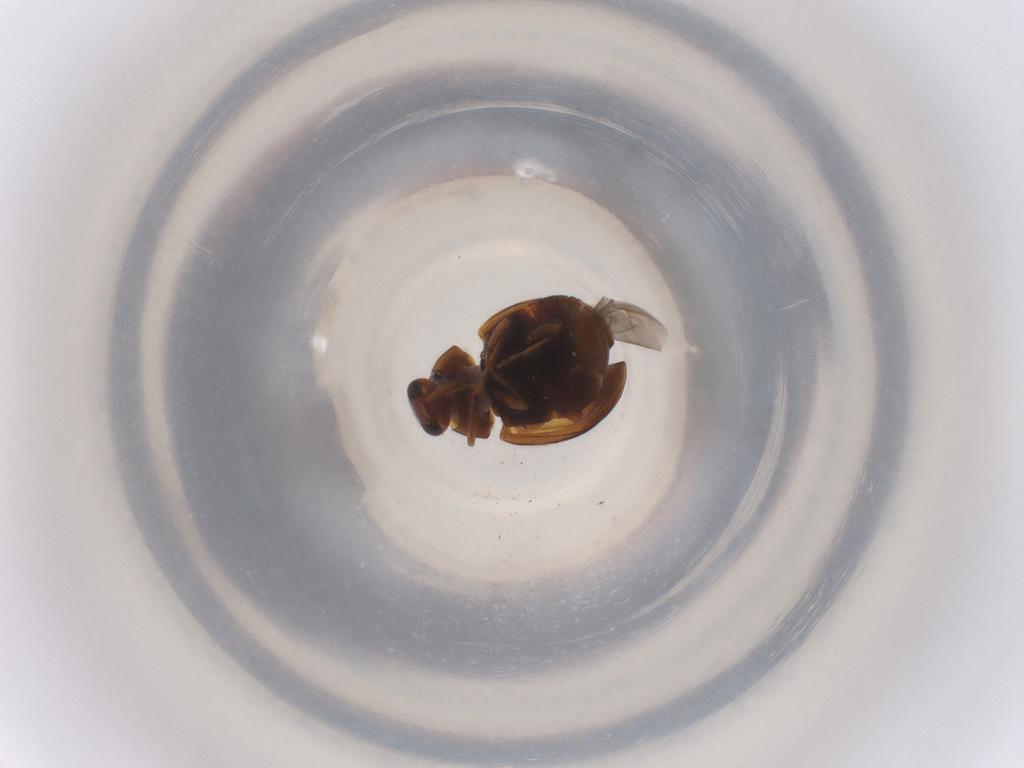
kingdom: Animalia
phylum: Arthropoda
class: Insecta
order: Coleoptera
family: Coccinellidae
